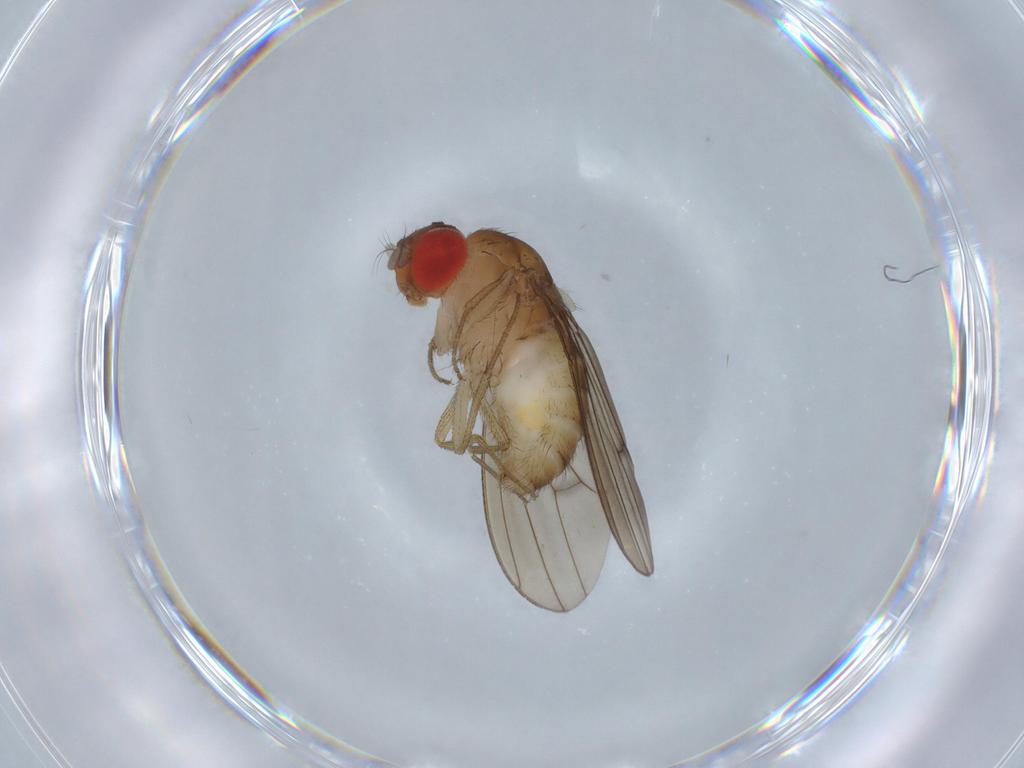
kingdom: Animalia
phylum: Arthropoda
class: Insecta
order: Diptera
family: Drosophilidae
